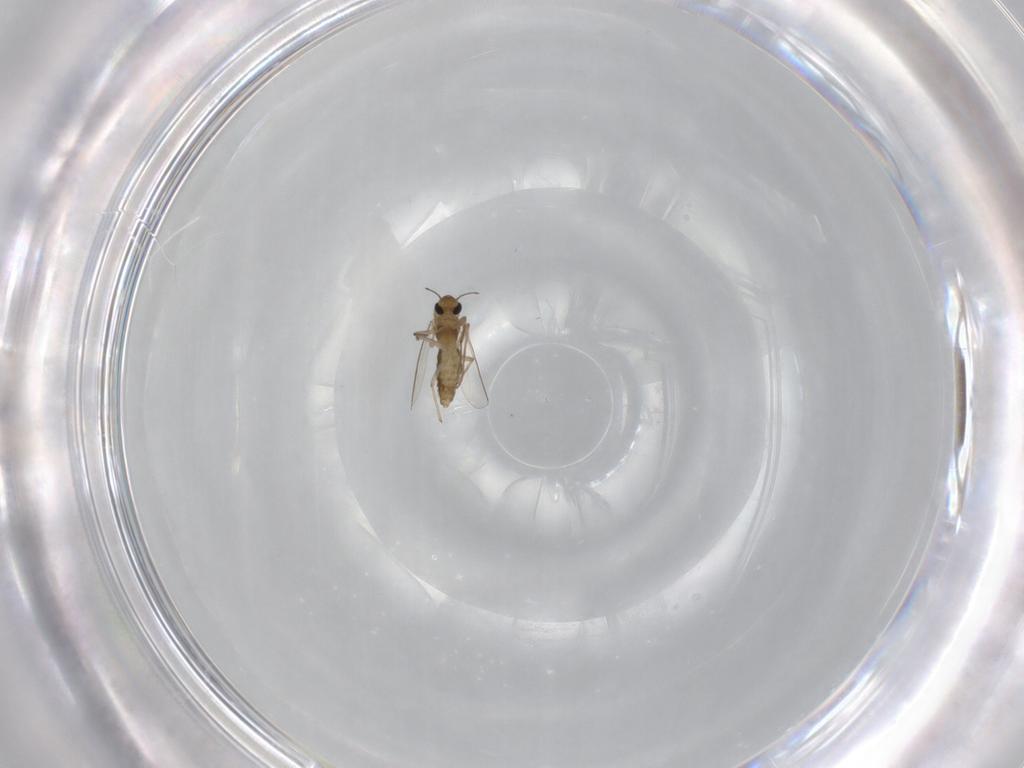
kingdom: Animalia
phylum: Arthropoda
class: Insecta
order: Diptera
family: Chironomidae
